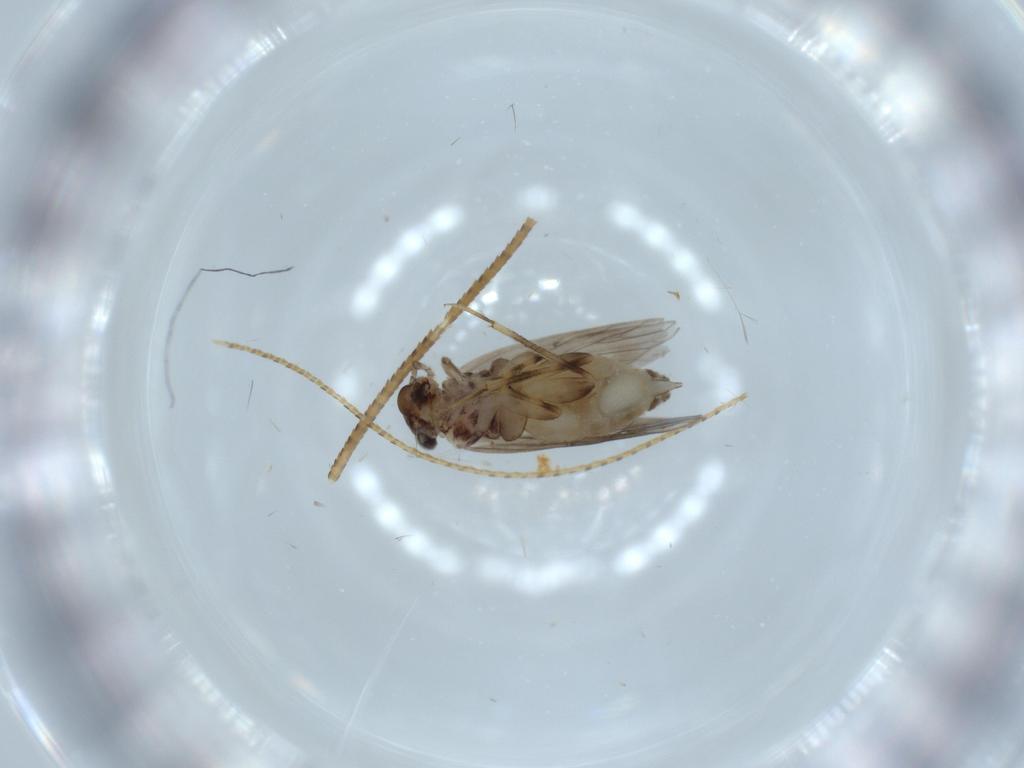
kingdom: Animalia
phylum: Arthropoda
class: Insecta
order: Psocodea
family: Lepidopsocidae
